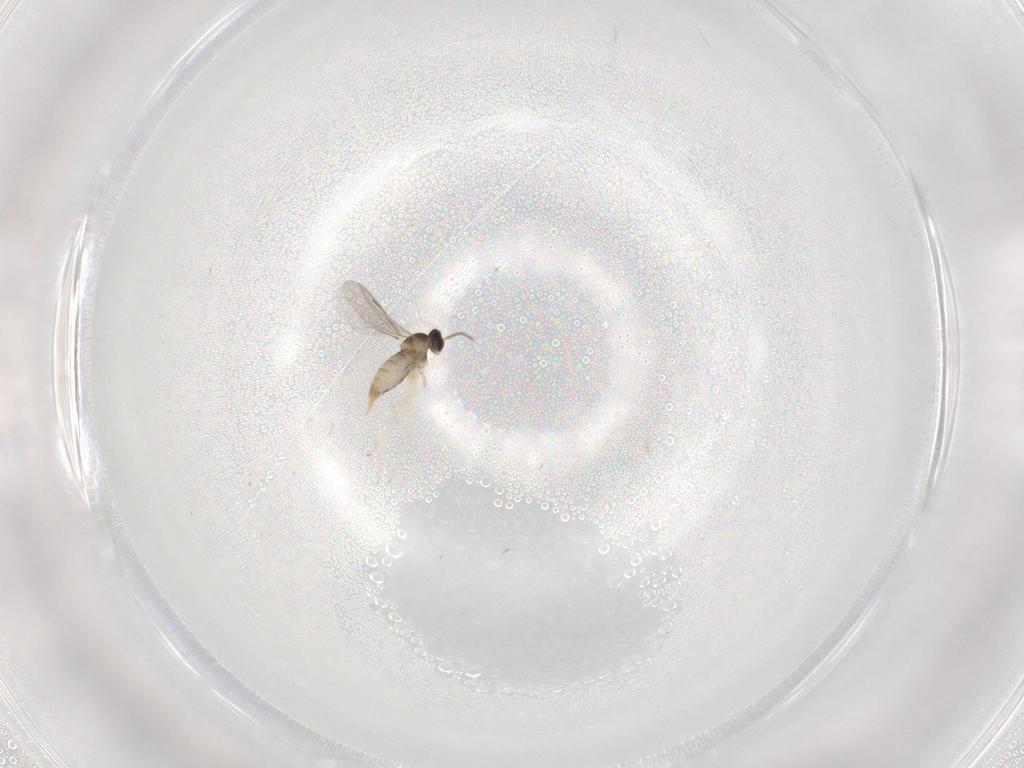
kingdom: Animalia
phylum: Arthropoda
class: Insecta
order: Diptera
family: Phoridae
